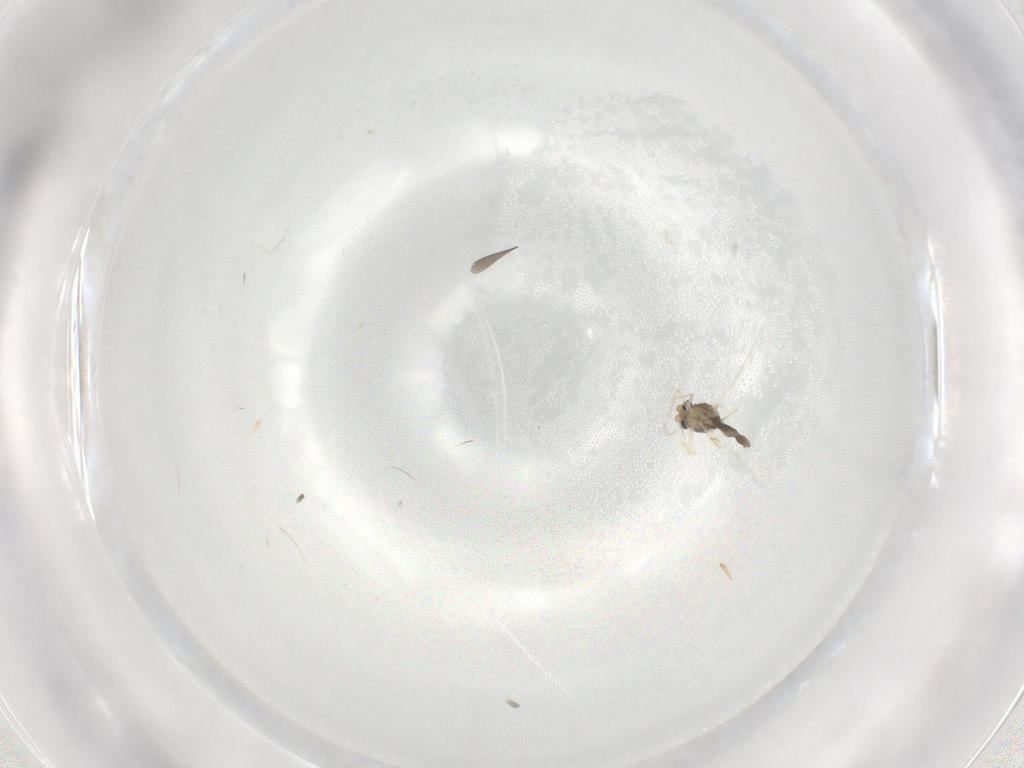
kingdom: Animalia
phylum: Arthropoda
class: Insecta
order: Diptera
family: Chironomidae
